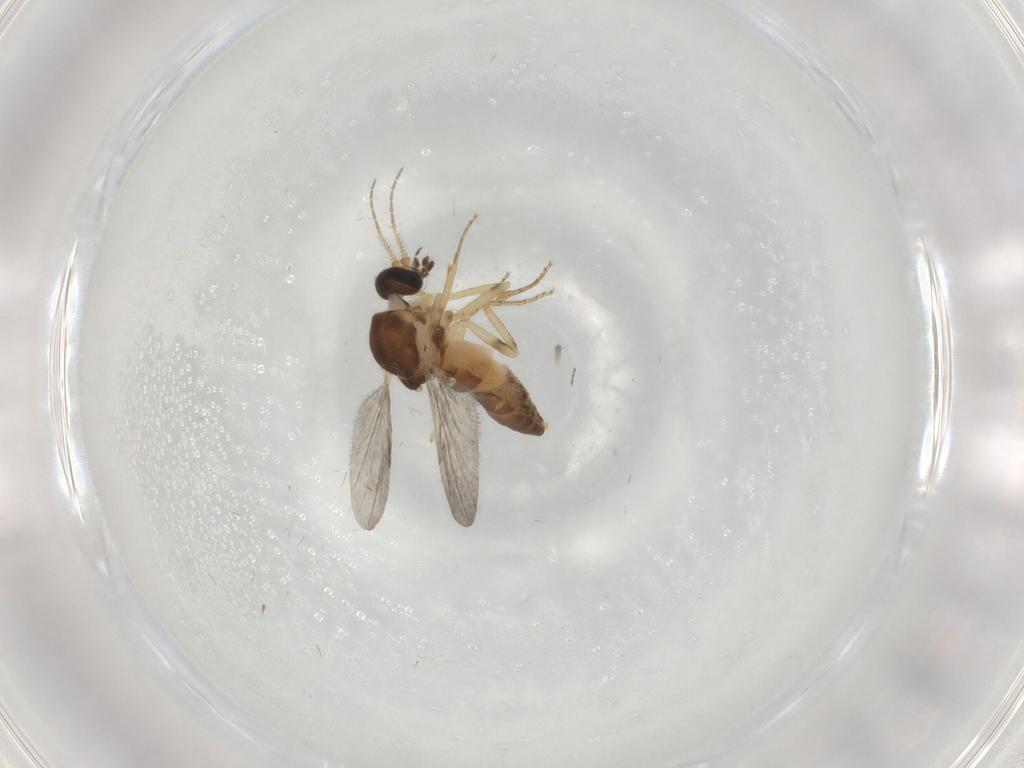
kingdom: Animalia
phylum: Arthropoda
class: Insecta
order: Diptera
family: Ceratopogonidae
